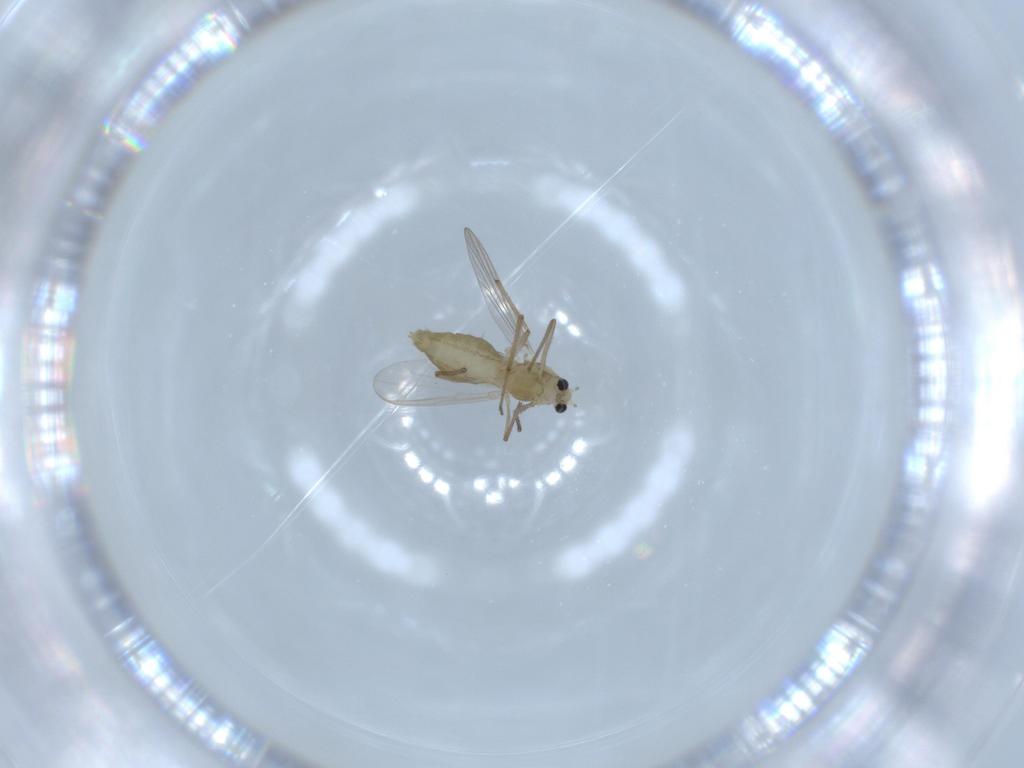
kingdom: Animalia
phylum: Arthropoda
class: Insecta
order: Diptera
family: Chironomidae
